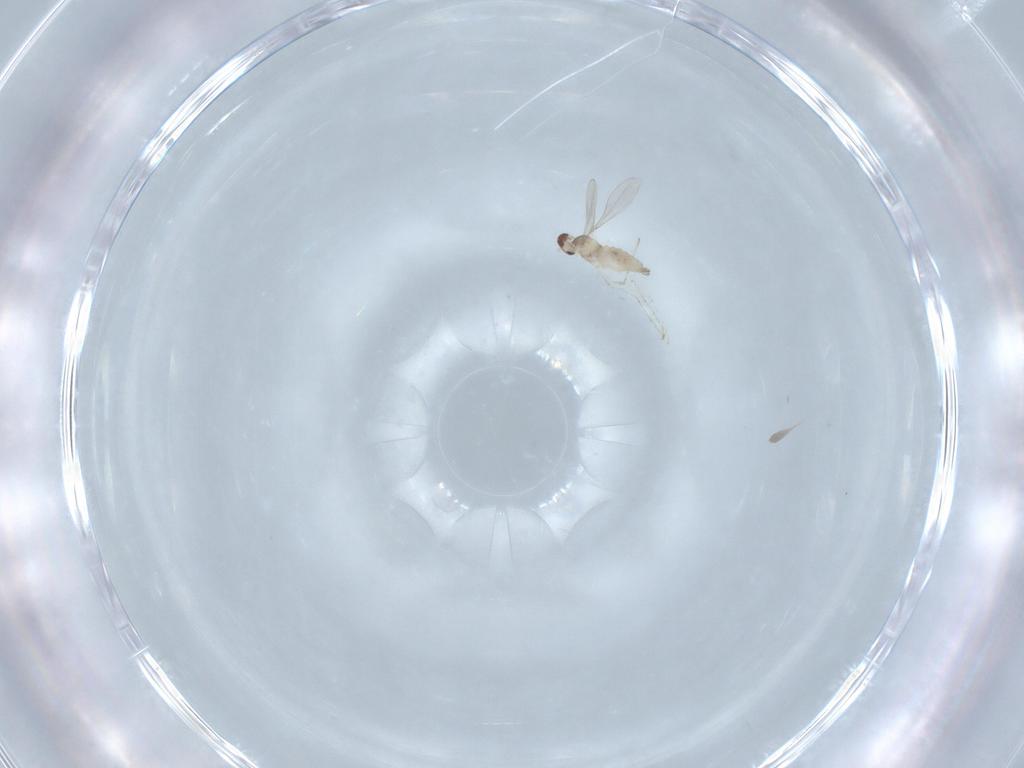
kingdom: Animalia
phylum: Arthropoda
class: Insecta
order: Diptera
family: Cecidomyiidae
